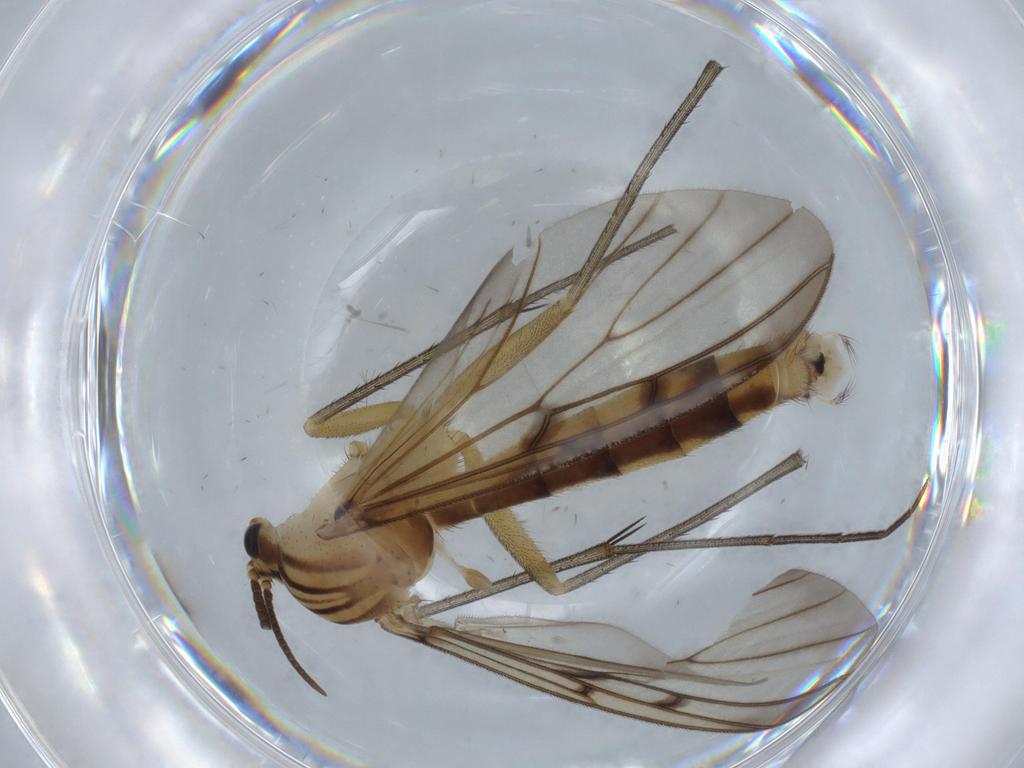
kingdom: Animalia
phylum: Arthropoda
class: Insecta
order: Diptera
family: Mycetophilidae
